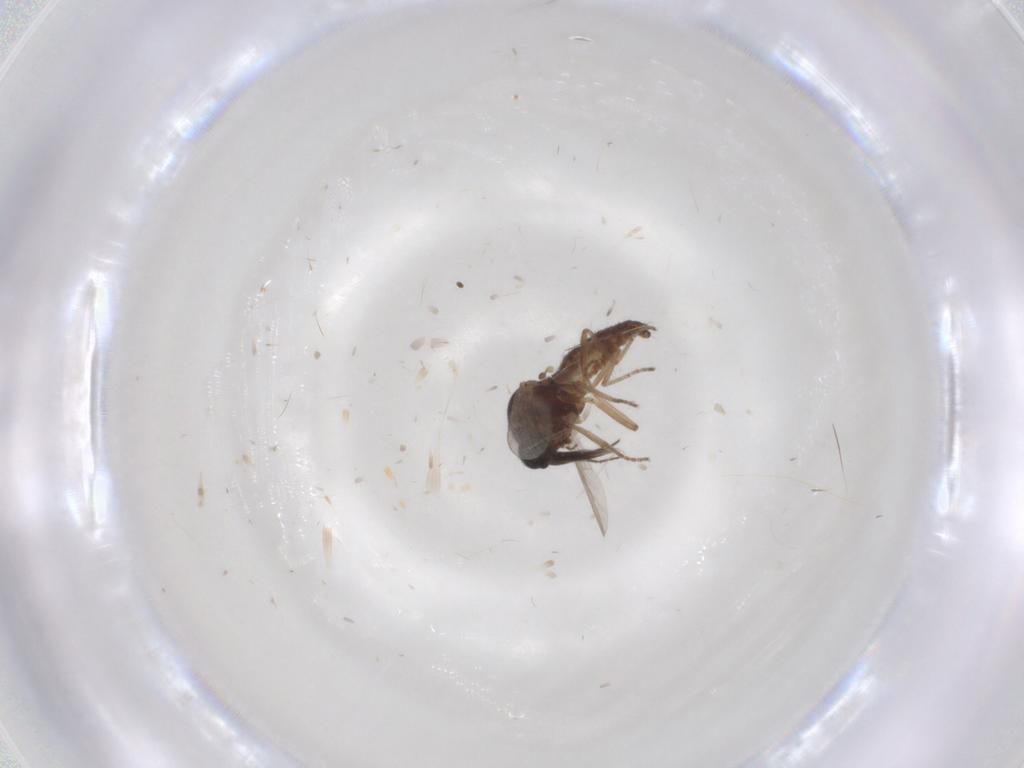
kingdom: Animalia
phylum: Arthropoda
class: Insecta
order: Diptera
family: Ceratopogonidae
